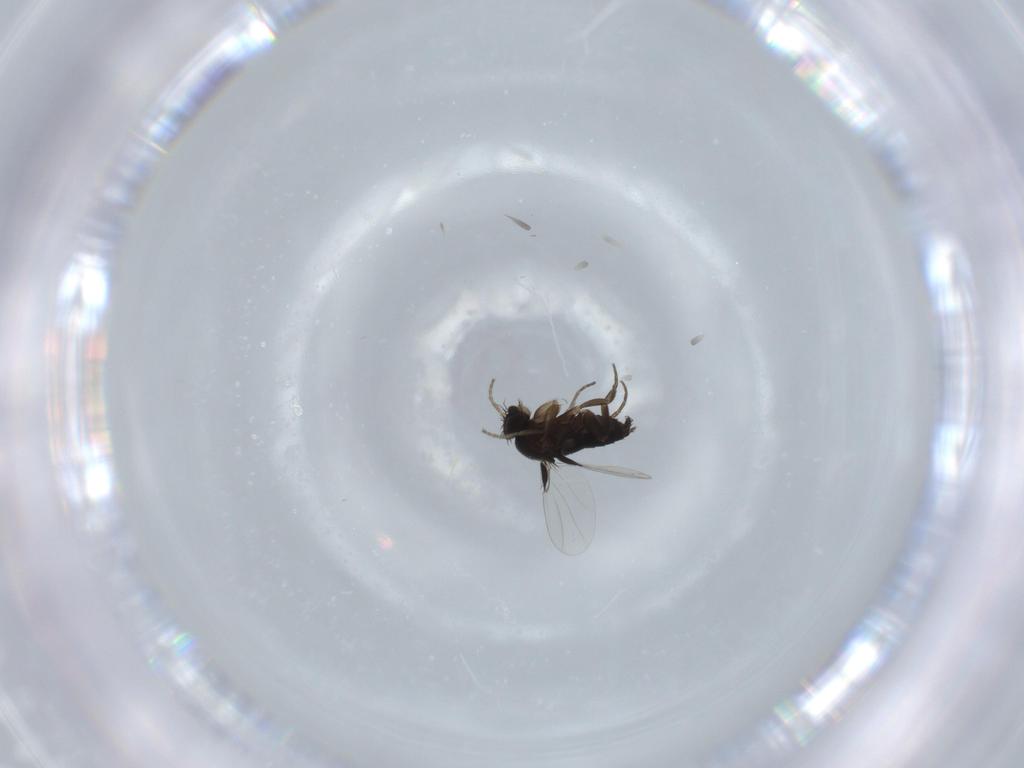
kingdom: Animalia
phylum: Arthropoda
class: Insecta
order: Diptera
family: Phoridae
